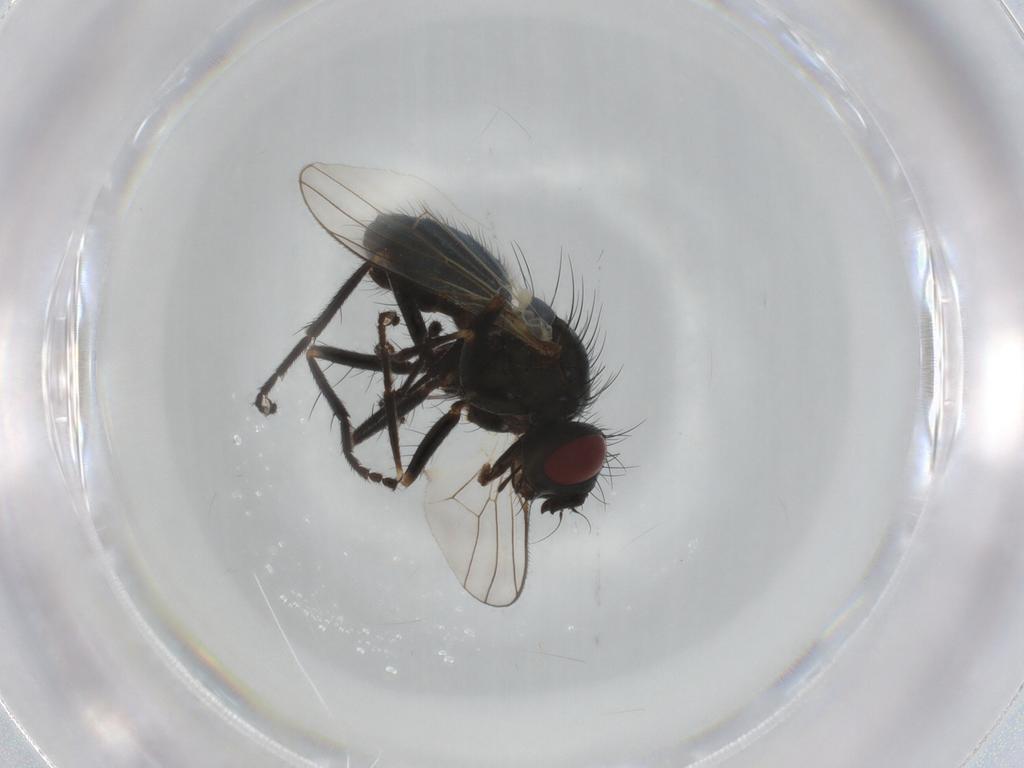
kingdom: Animalia
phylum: Arthropoda
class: Insecta
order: Diptera
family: Muscidae
